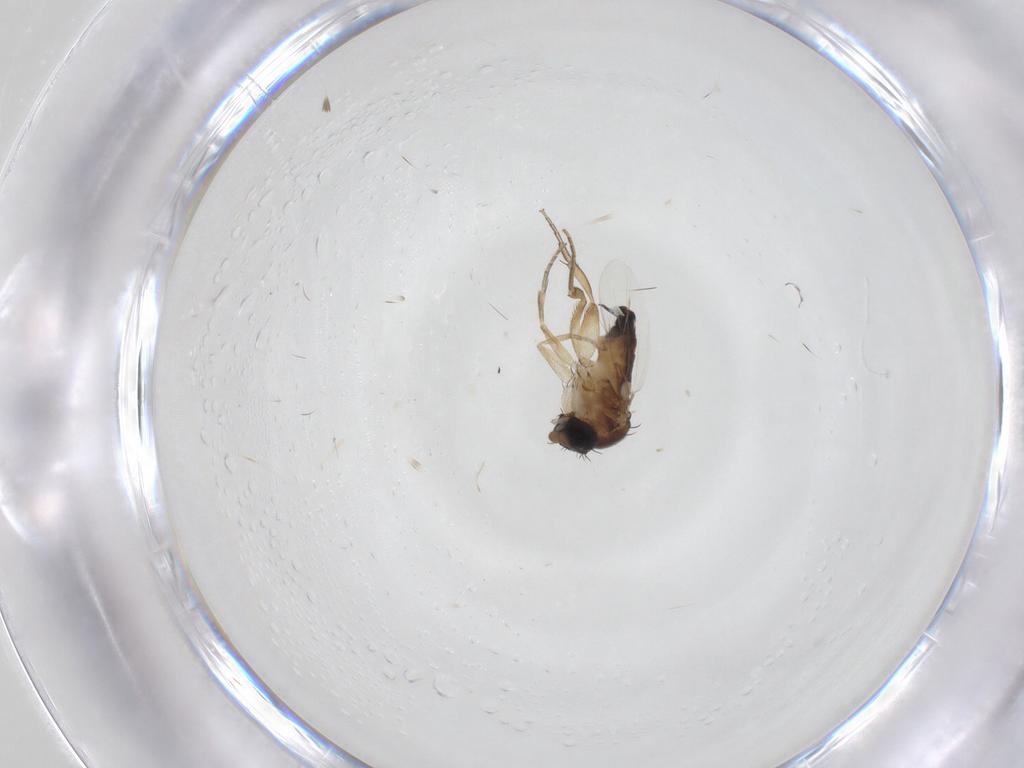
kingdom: Animalia
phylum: Arthropoda
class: Insecta
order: Diptera
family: Phoridae
